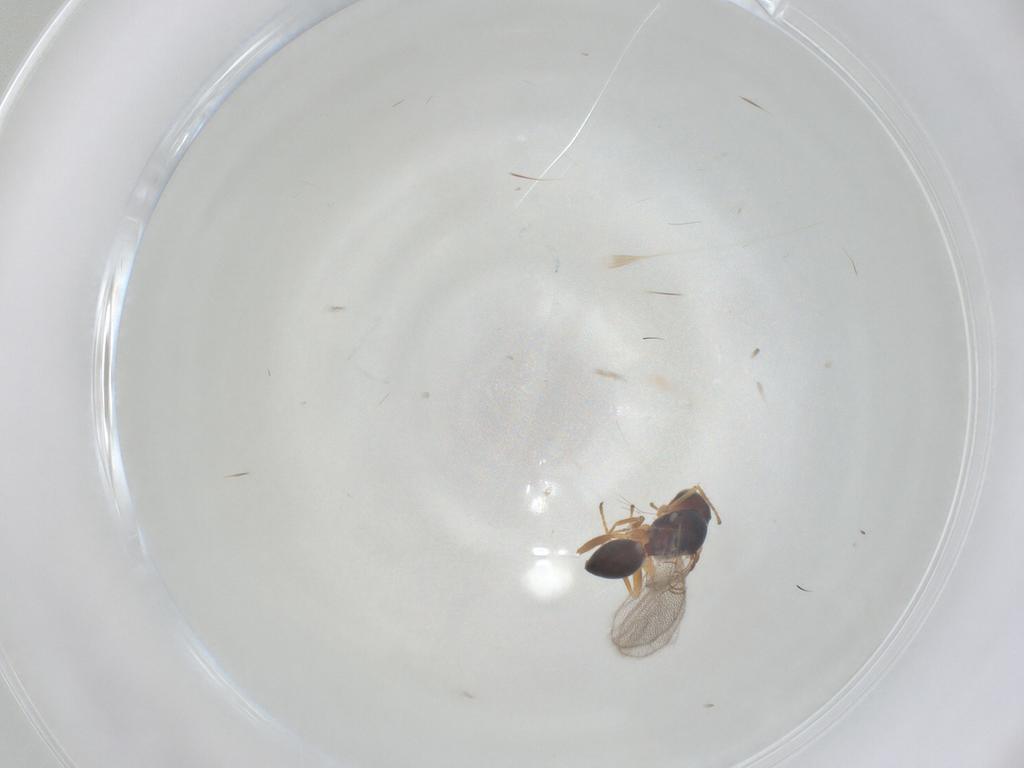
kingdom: Animalia
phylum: Arthropoda
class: Insecta
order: Hymenoptera
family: Figitidae
